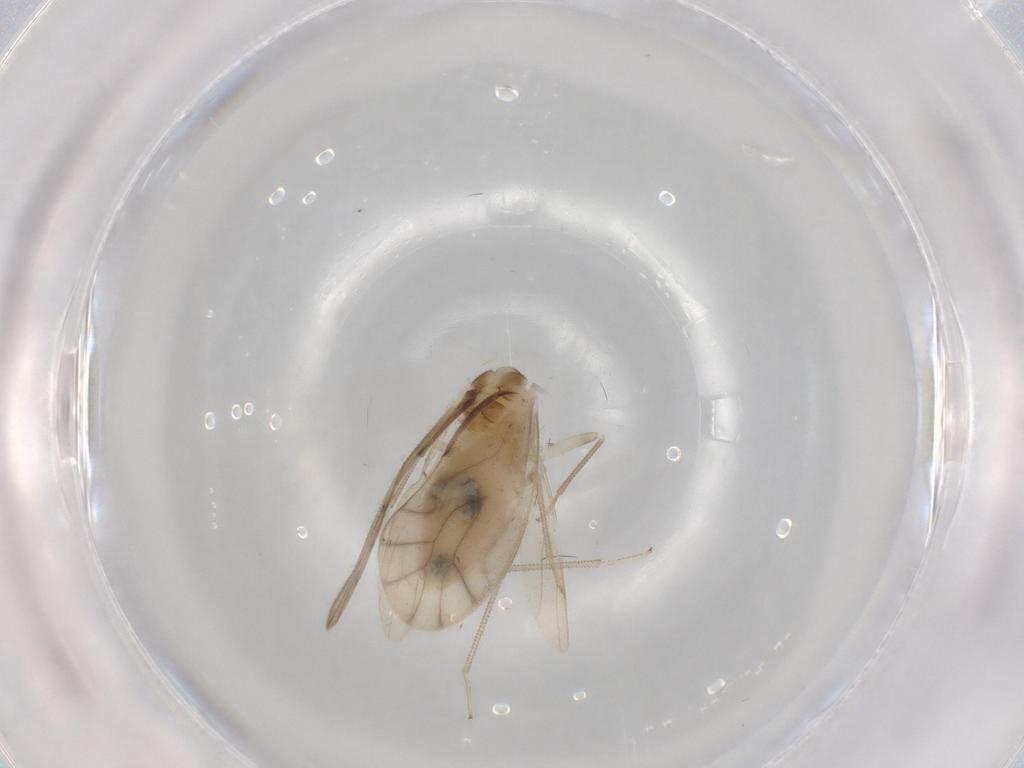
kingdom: Animalia
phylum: Arthropoda
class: Insecta
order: Psocodea
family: Caeciliusidae
